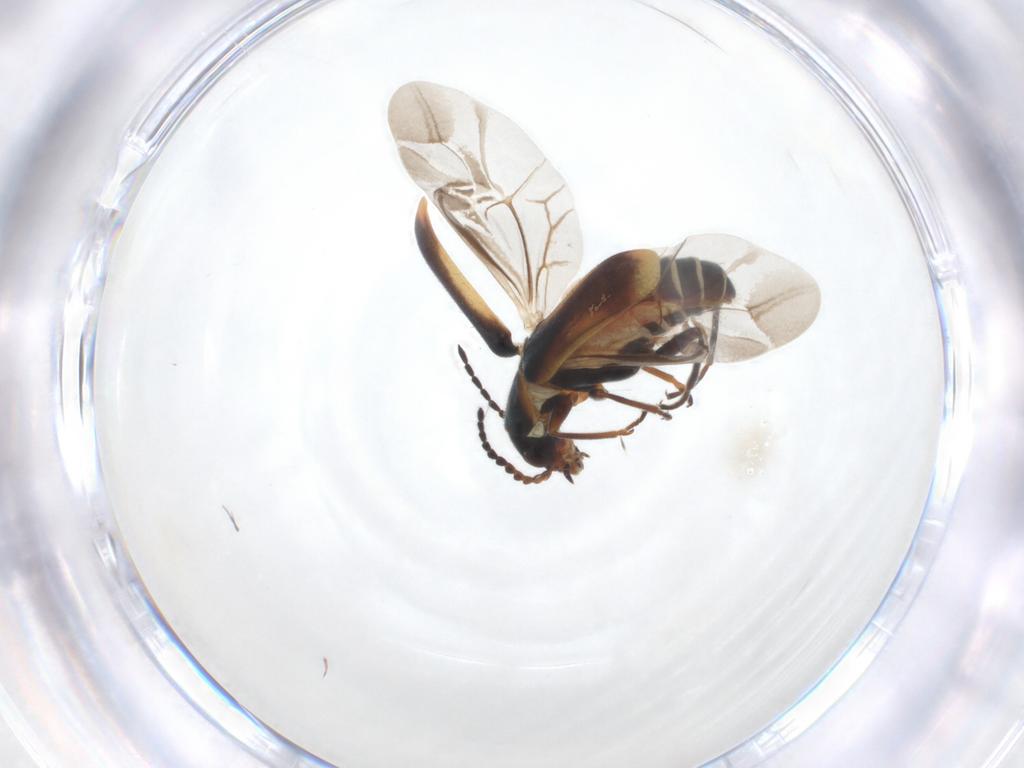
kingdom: Animalia
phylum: Arthropoda
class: Insecta
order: Coleoptera
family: Melyridae
